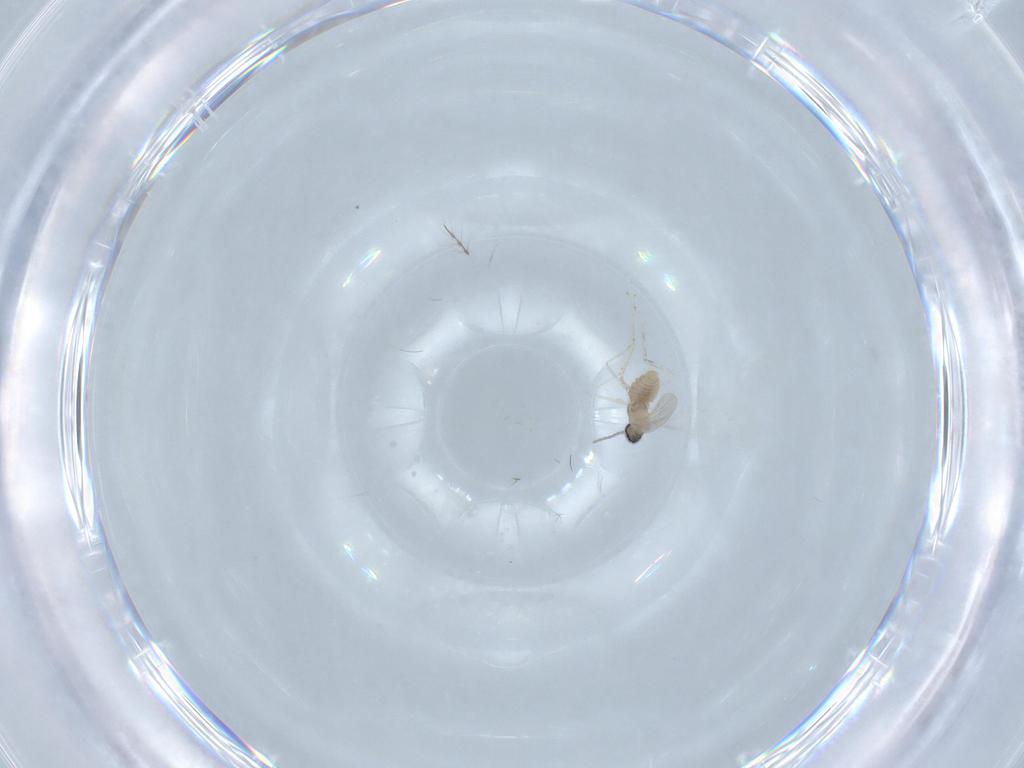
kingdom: Animalia
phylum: Arthropoda
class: Insecta
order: Diptera
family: Cecidomyiidae
